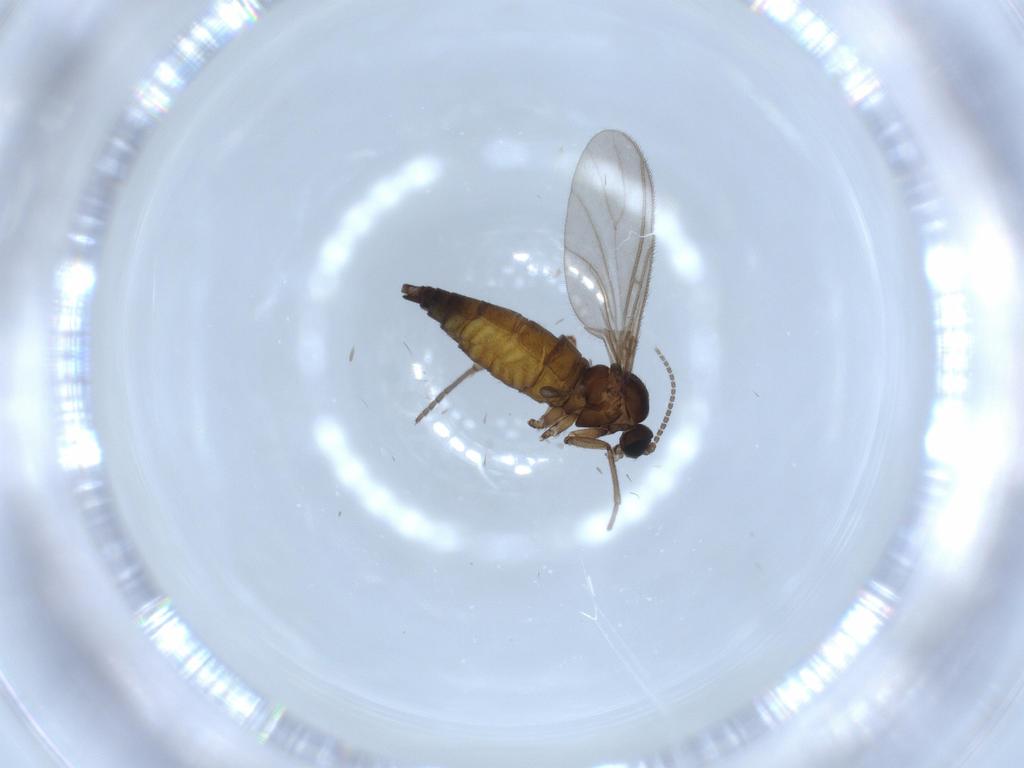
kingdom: Animalia
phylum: Arthropoda
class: Insecta
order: Diptera
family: Sciaridae
